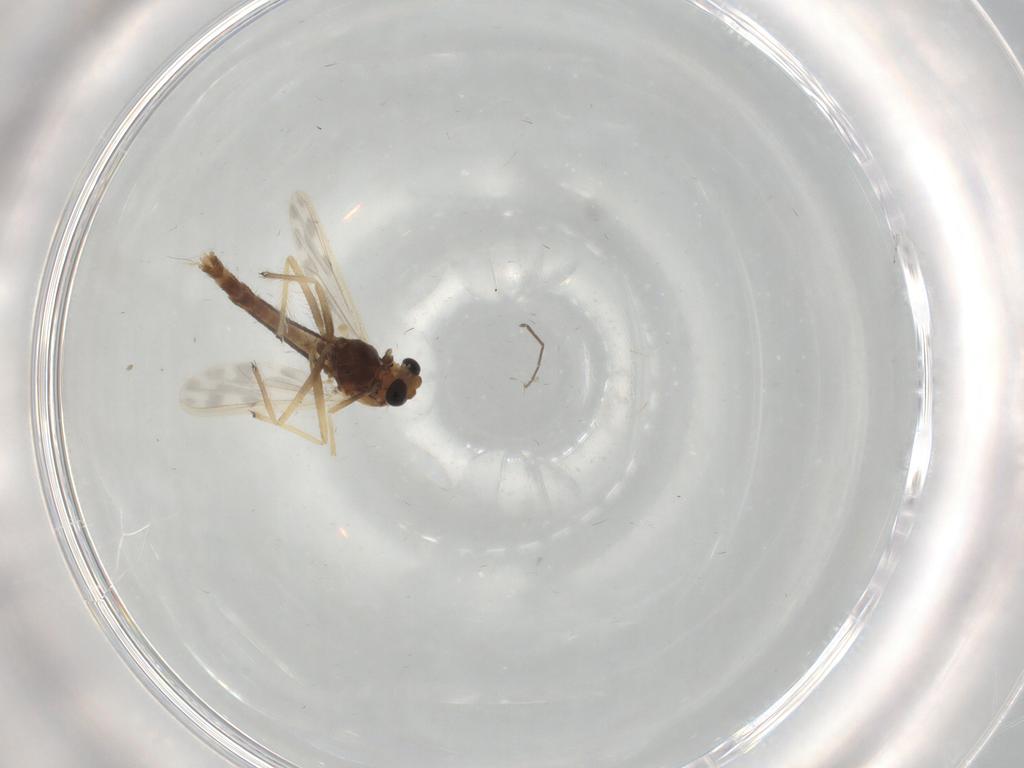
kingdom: Animalia
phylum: Arthropoda
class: Insecta
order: Diptera
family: Chironomidae
